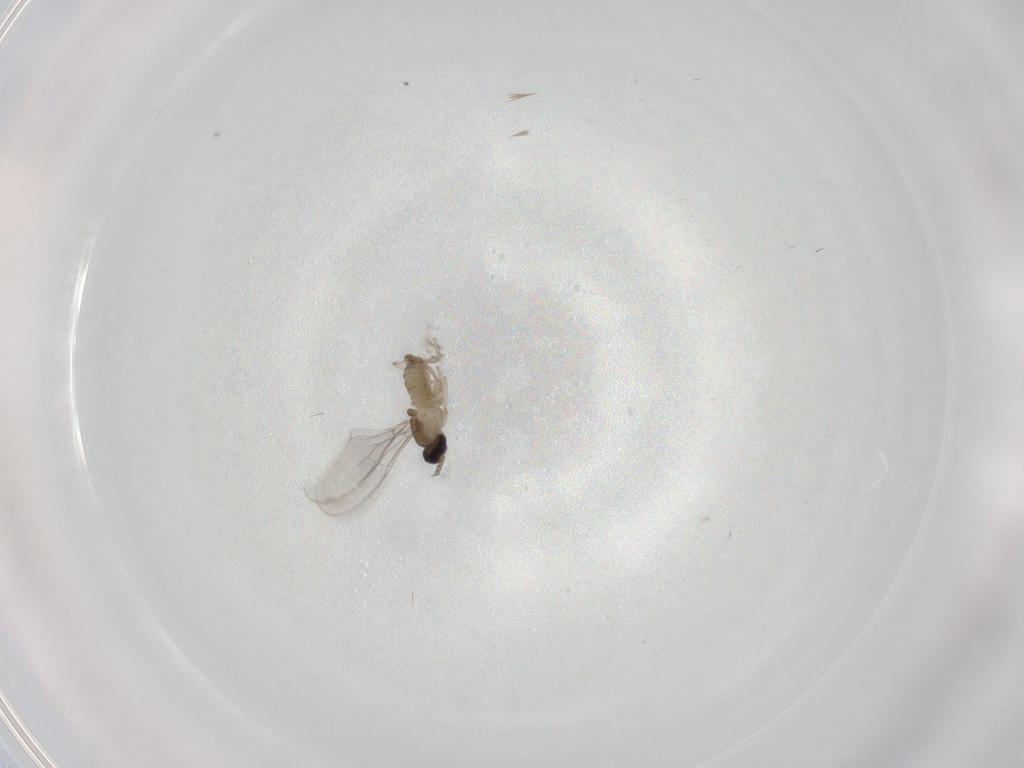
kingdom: Animalia
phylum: Arthropoda
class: Insecta
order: Diptera
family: Cecidomyiidae
